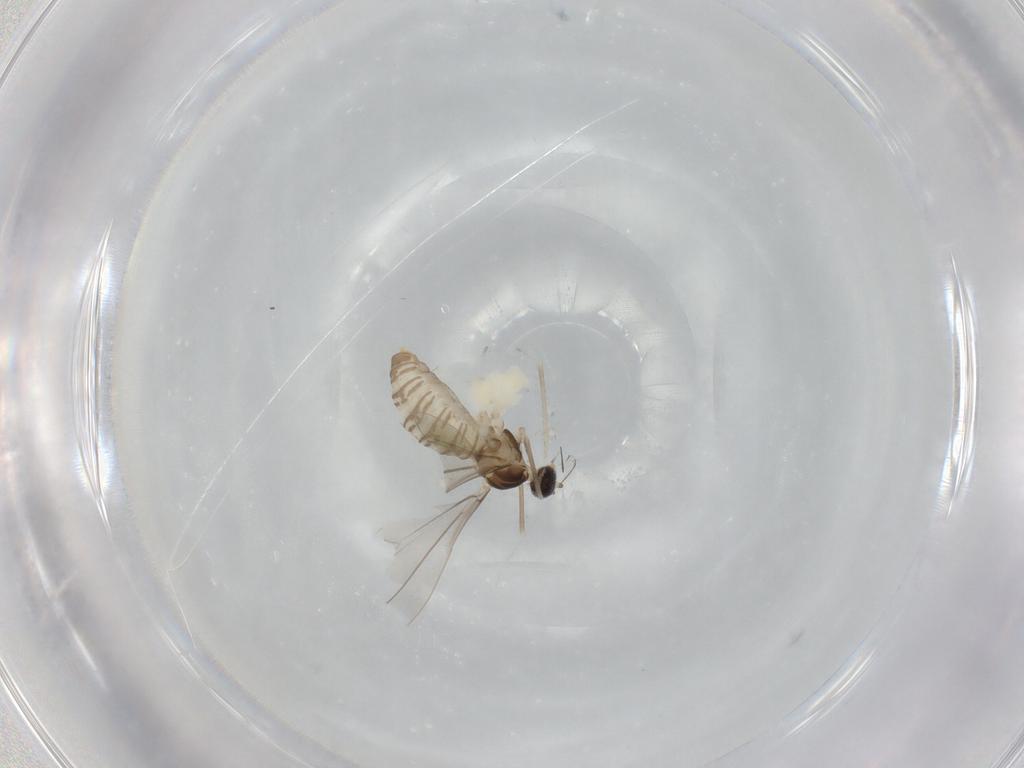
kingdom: Animalia
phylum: Arthropoda
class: Insecta
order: Diptera
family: Cecidomyiidae
